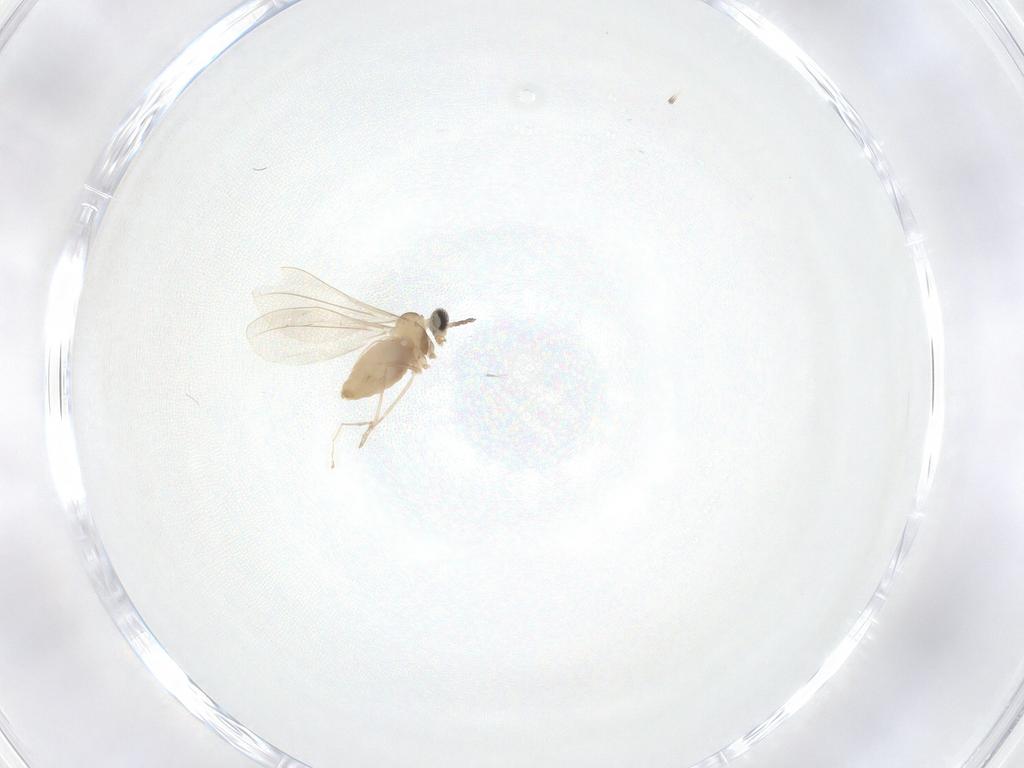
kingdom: Animalia
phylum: Arthropoda
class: Insecta
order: Diptera
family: Cecidomyiidae
